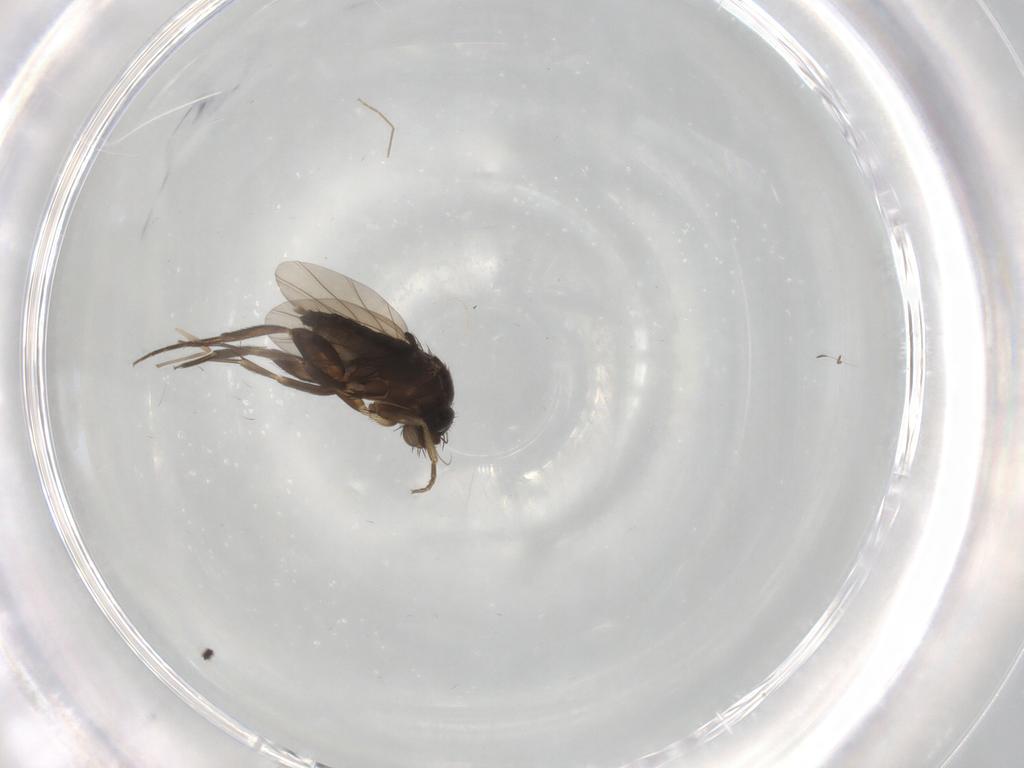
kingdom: Animalia
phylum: Arthropoda
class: Insecta
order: Diptera
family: Phoridae
